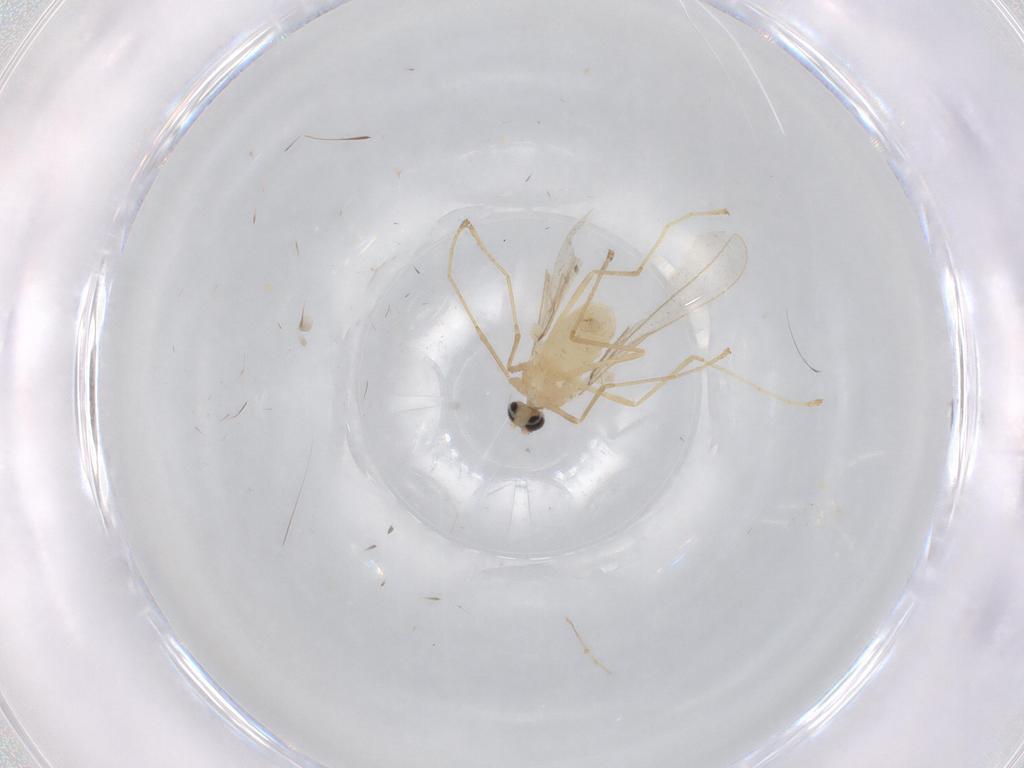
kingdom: Animalia
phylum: Arthropoda
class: Insecta
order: Diptera
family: Cecidomyiidae
